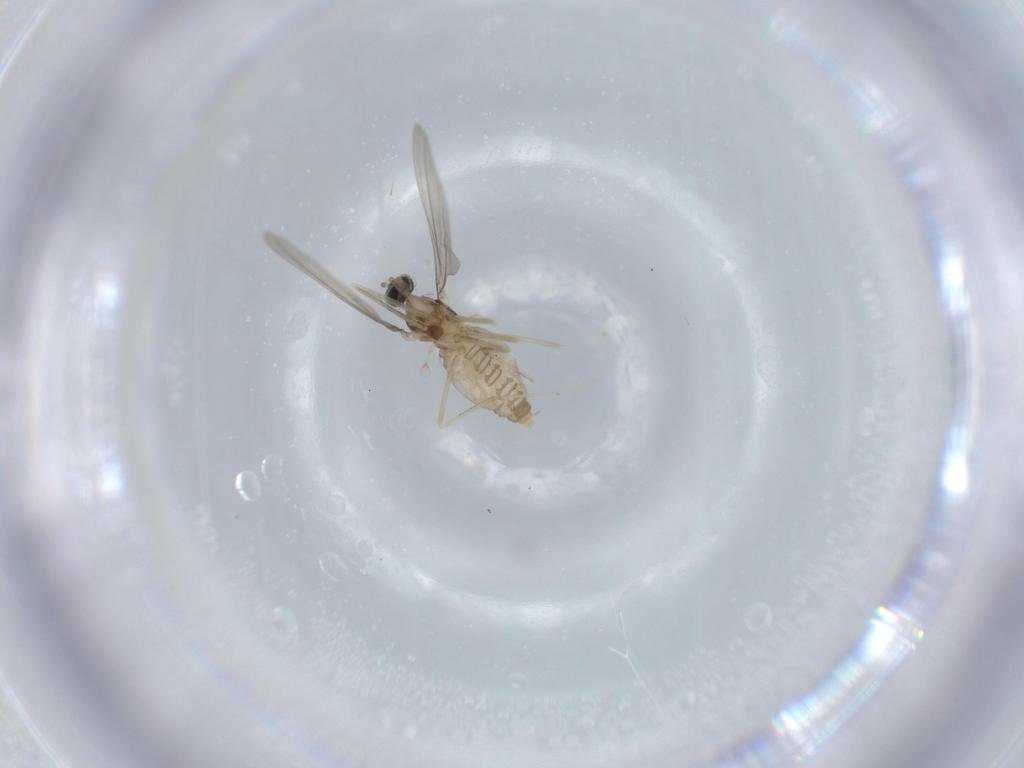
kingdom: Animalia
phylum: Arthropoda
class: Insecta
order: Diptera
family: Cecidomyiidae
